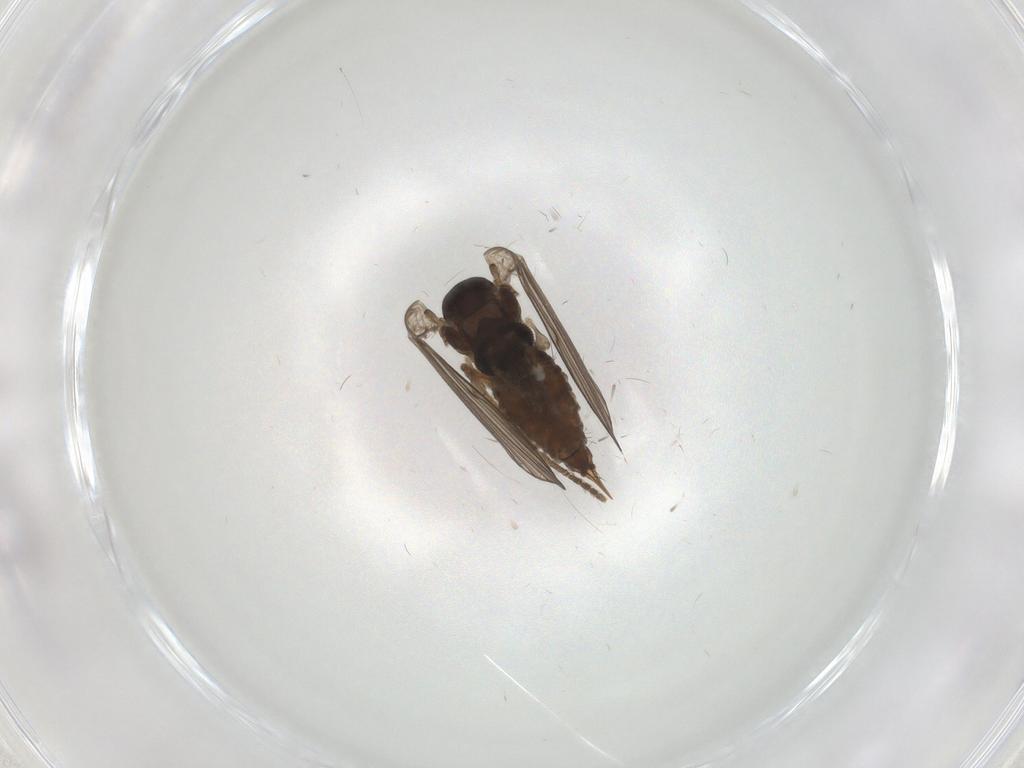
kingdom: Animalia
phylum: Arthropoda
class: Insecta
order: Diptera
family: Psychodidae
